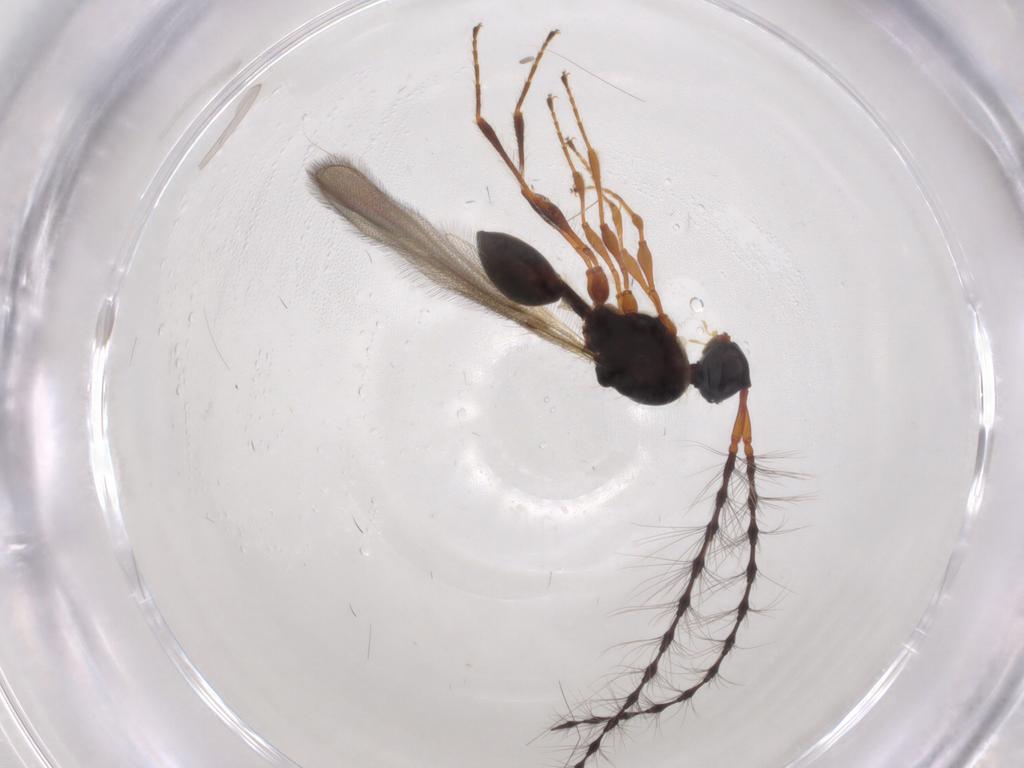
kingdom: Animalia
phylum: Arthropoda
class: Insecta
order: Hymenoptera
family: Diapriidae
